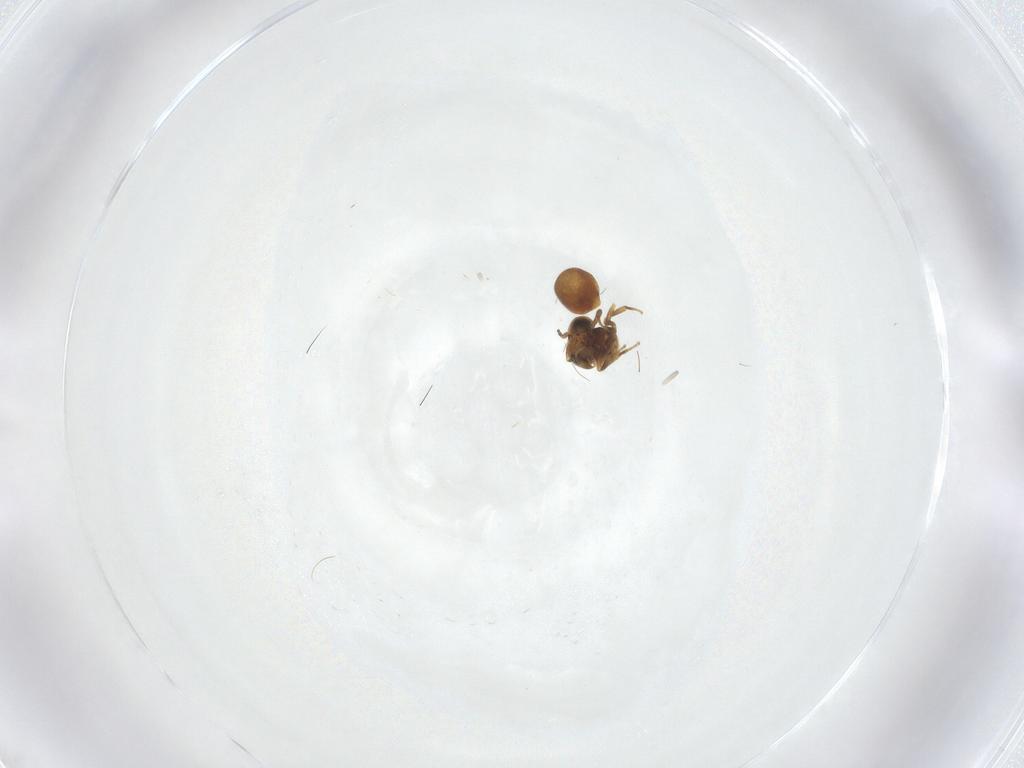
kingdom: Animalia
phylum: Arthropoda
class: Insecta
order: Hymenoptera
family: Scelionidae
